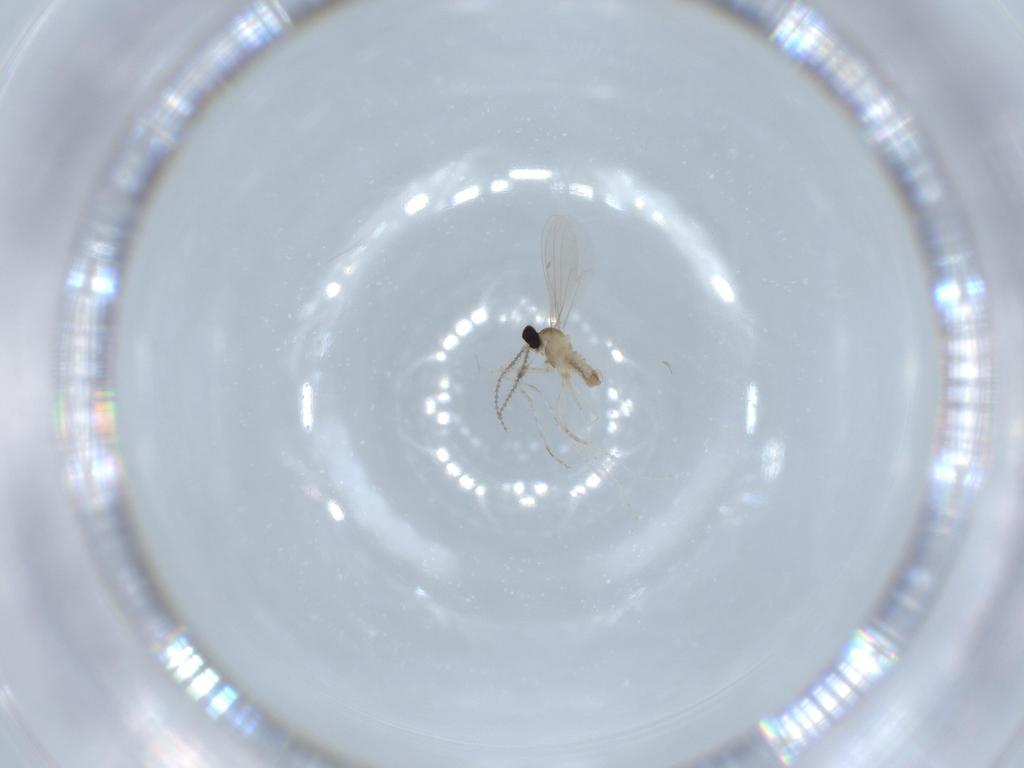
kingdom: Animalia
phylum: Arthropoda
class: Insecta
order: Diptera
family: Cecidomyiidae
